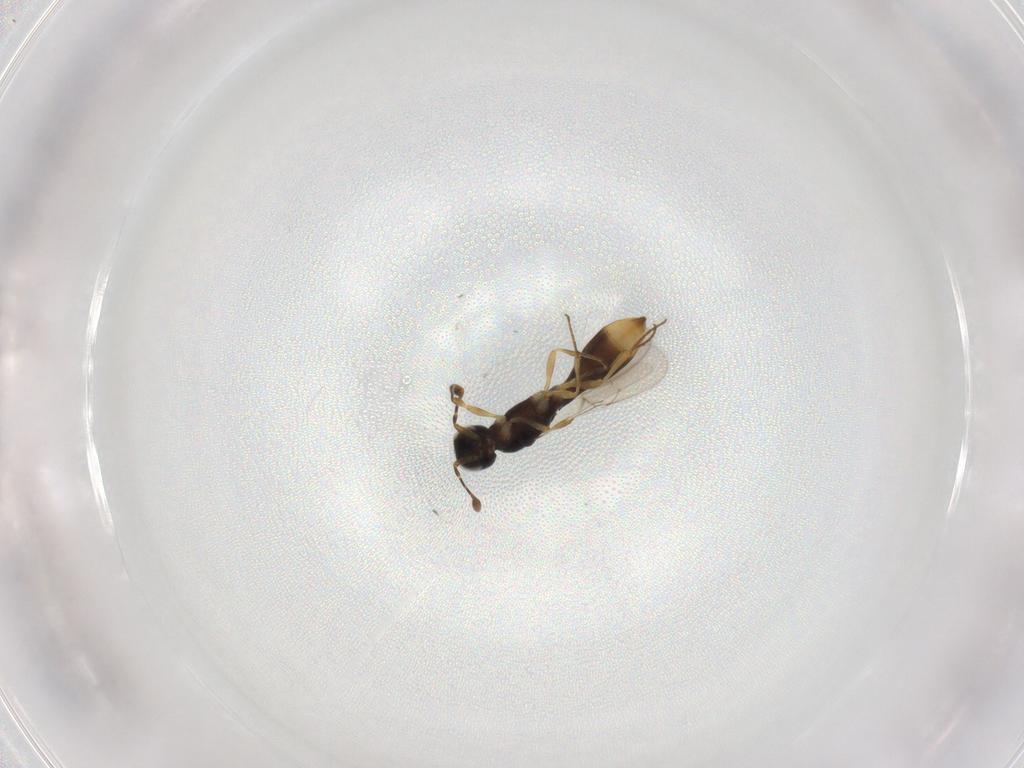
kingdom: Animalia
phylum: Arthropoda
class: Insecta
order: Hymenoptera
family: Scelionidae
